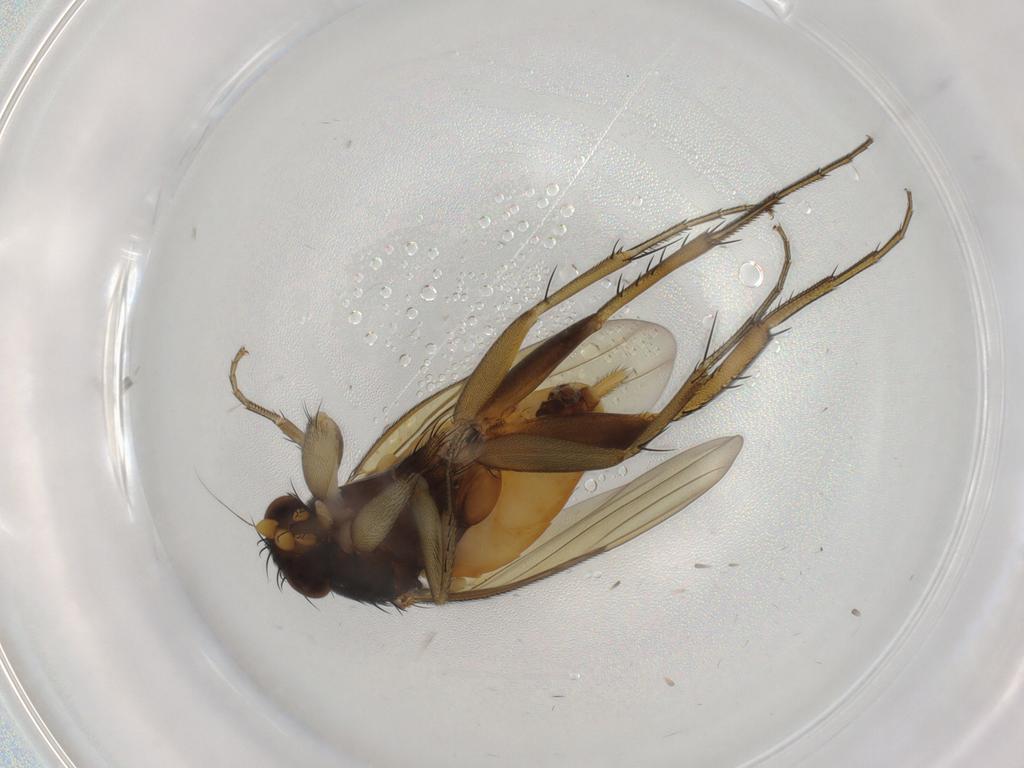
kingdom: Animalia
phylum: Arthropoda
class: Insecta
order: Diptera
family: Phoridae
